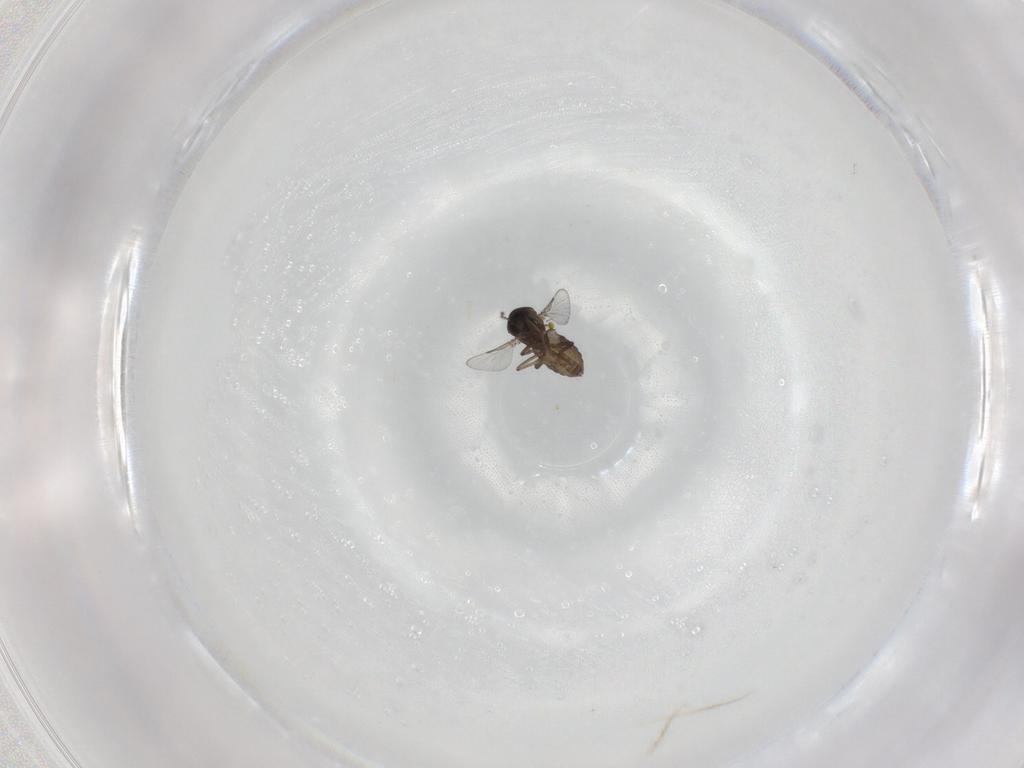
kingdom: Animalia
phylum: Arthropoda
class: Insecta
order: Diptera
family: Ceratopogonidae
